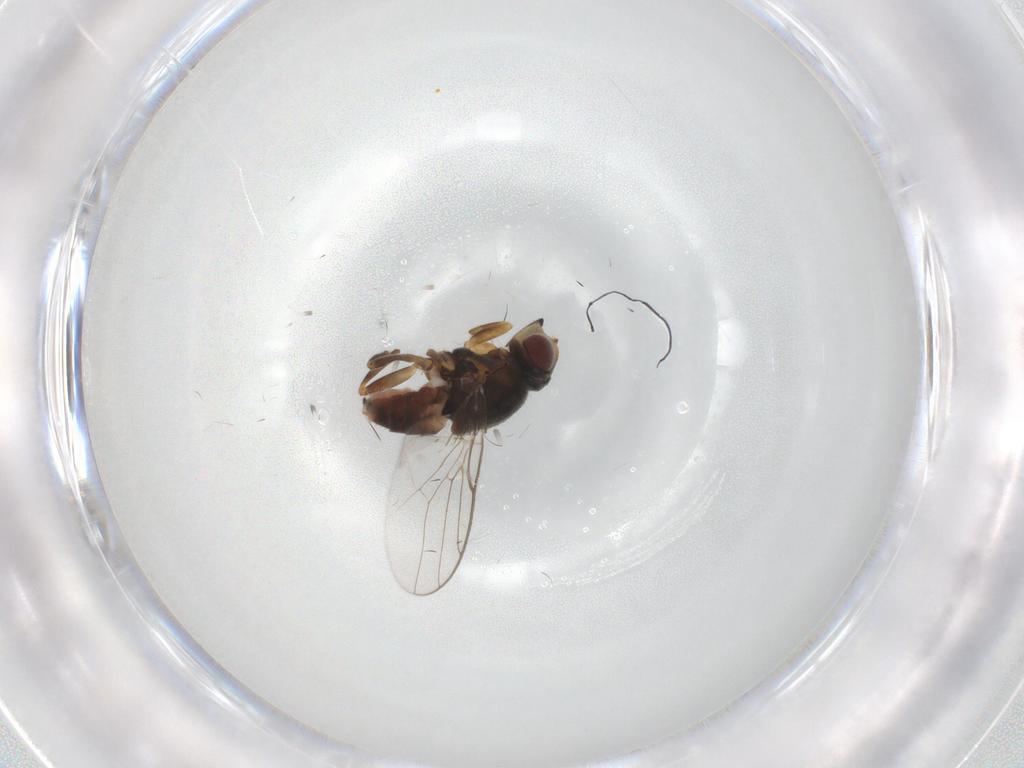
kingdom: Animalia
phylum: Arthropoda
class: Insecta
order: Diptera
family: Chloropidae
